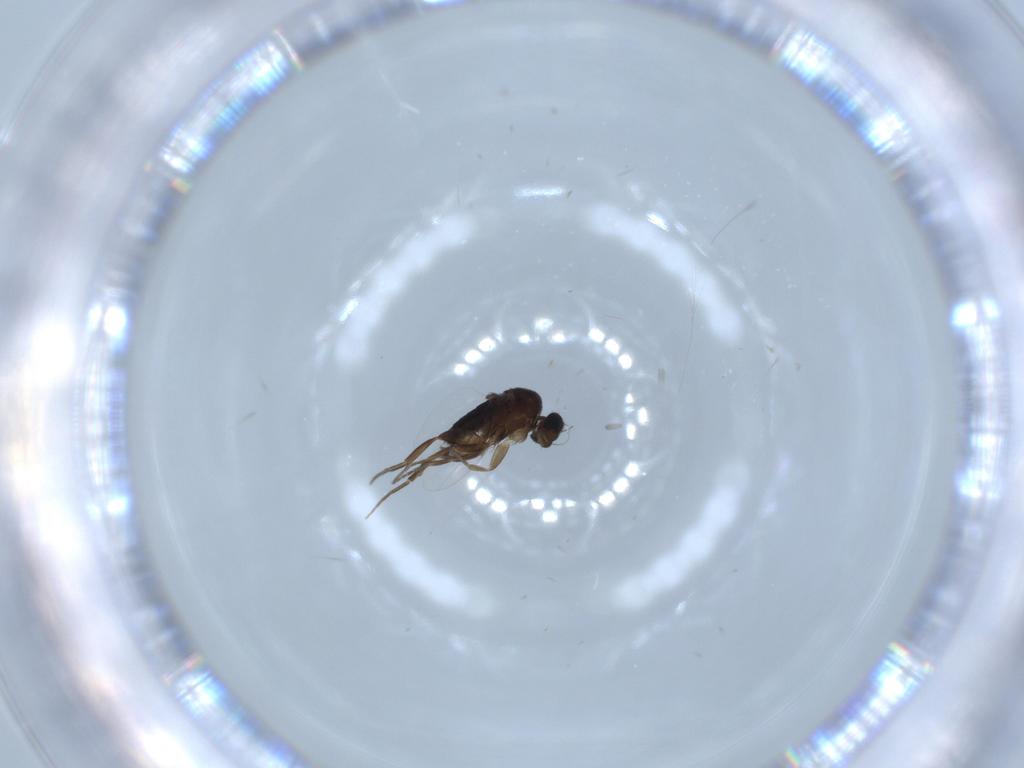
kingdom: Animalia
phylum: Arthropoda
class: Insecta
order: Diptera
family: Phoridae
